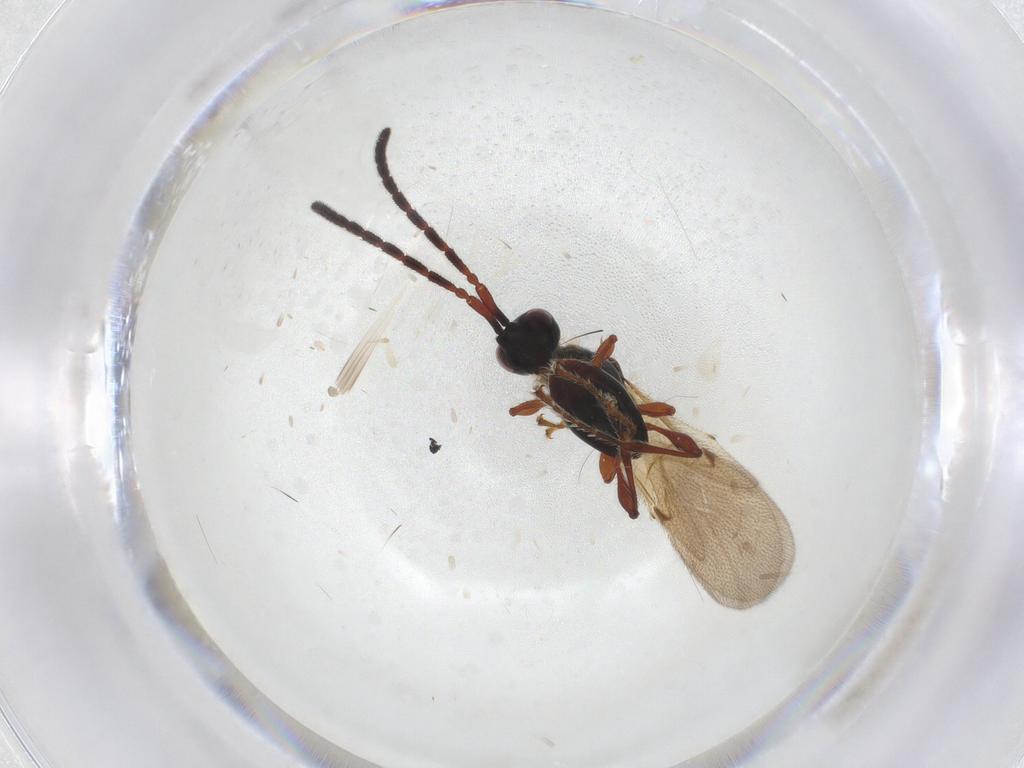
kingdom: Animalia
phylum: Arthropoda
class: Insecta
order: Hymenoptera
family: Diapriidae
